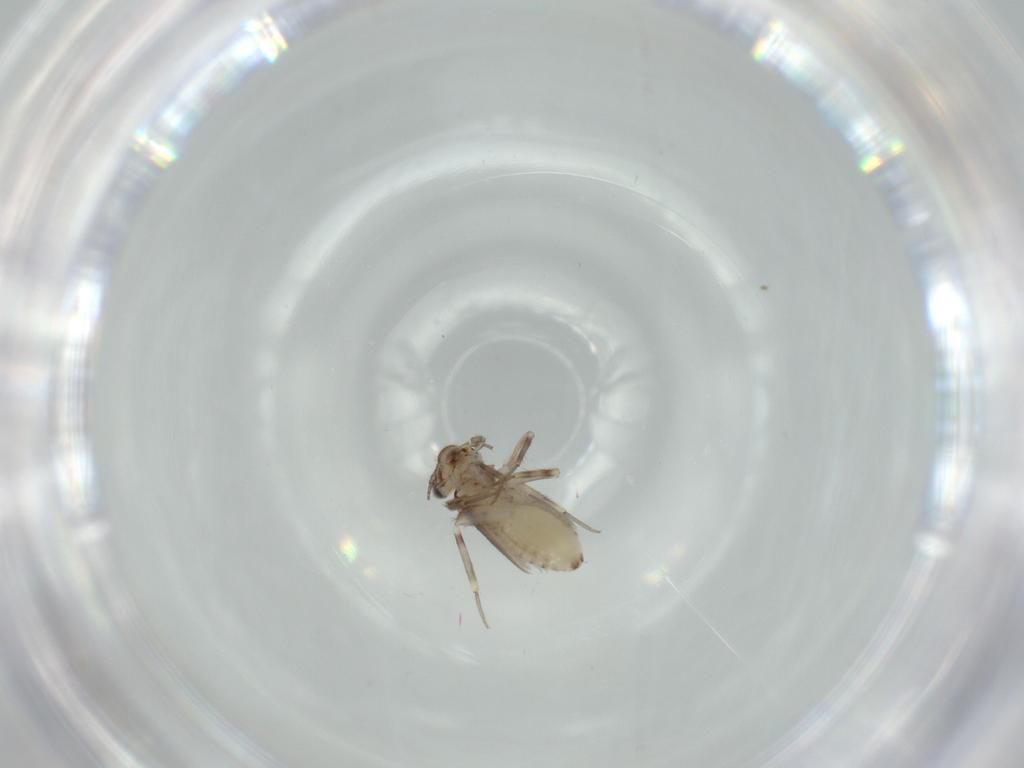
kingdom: Animalia
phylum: Arthropoda
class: Insecta
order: Psocodea
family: Lepidopsocidae
